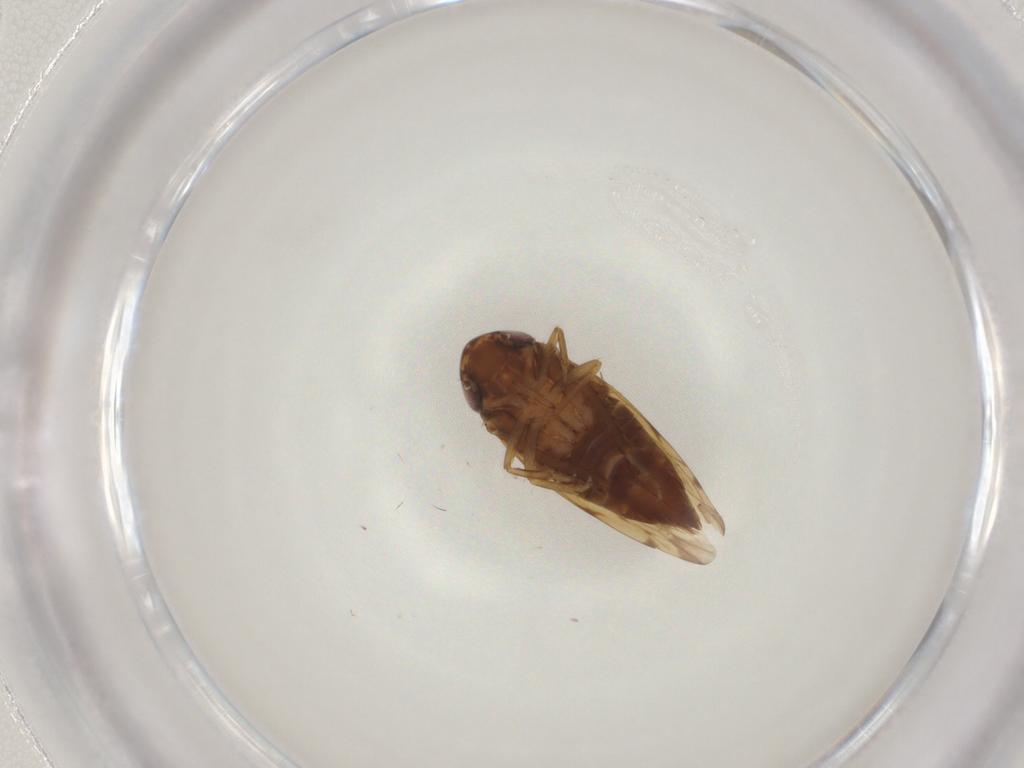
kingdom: Animalia
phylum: Arthropoda
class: Insecta
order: Hemiptera
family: Cicadellidae
